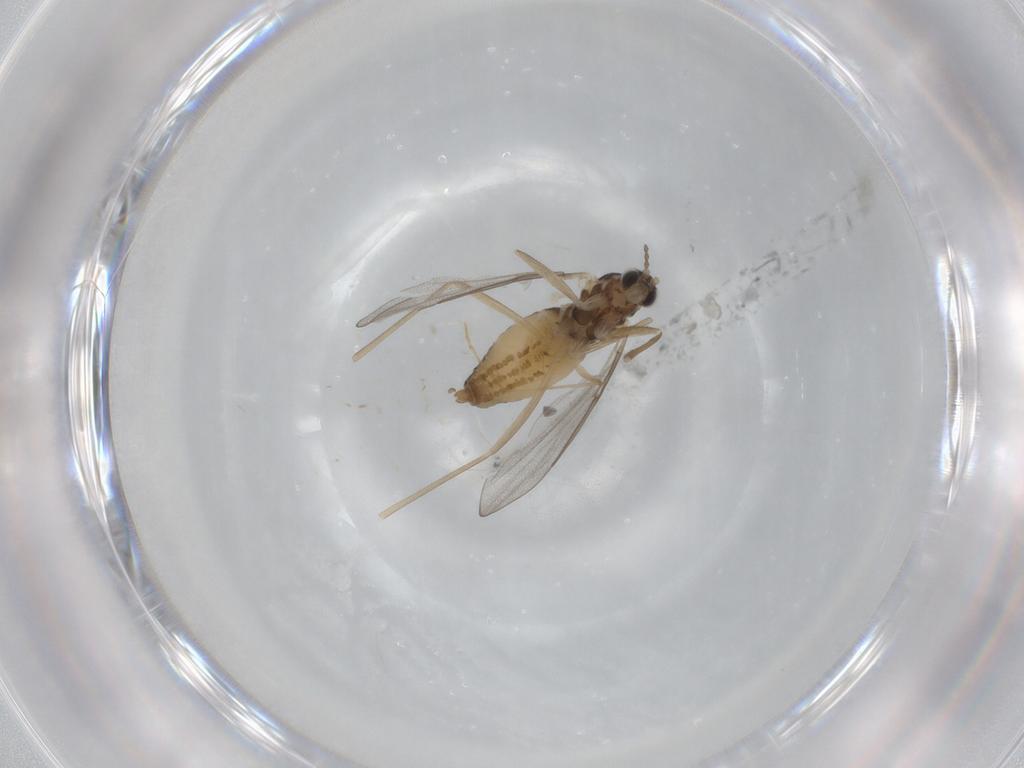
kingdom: Animalia
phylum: Arthropoda
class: Insecta
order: Diptera
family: Cecidomyiidae
